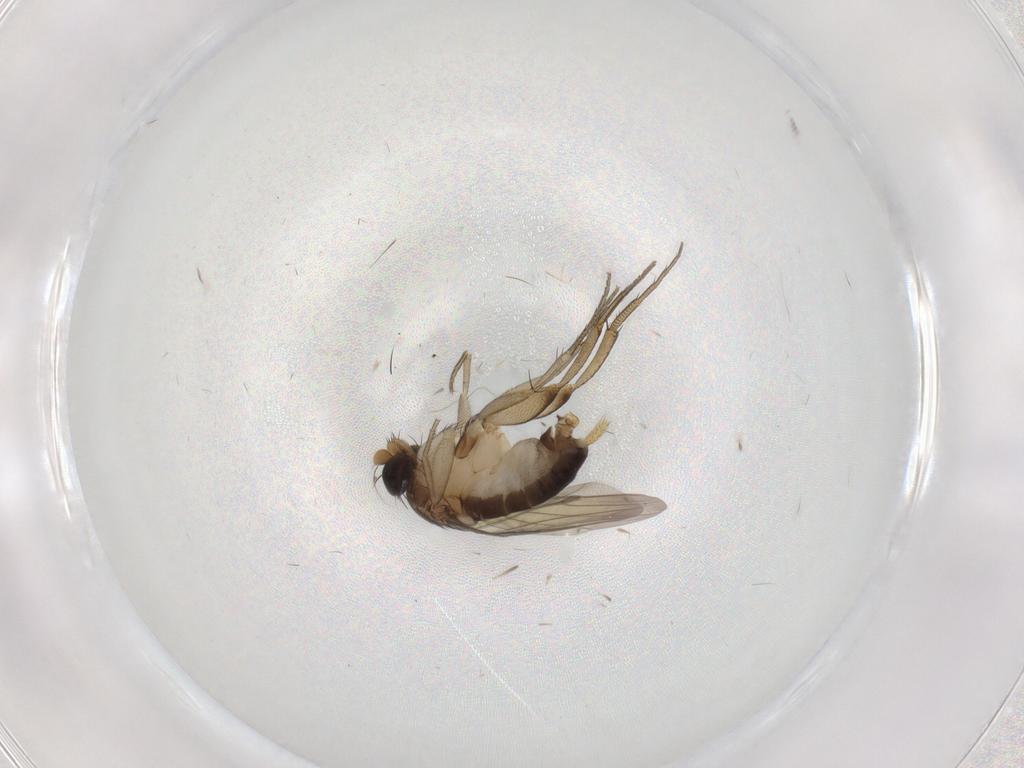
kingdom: Animalia
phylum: Arthropoda
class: Insecta
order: Diptera
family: Phoridae
